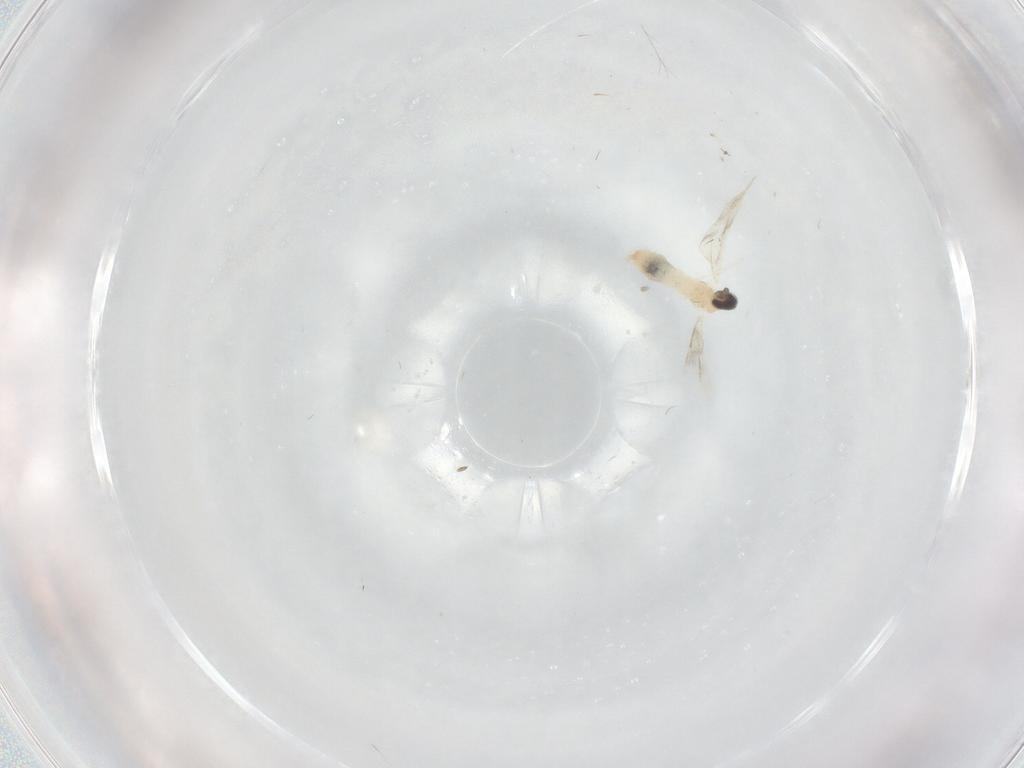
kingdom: Animalia
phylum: Arthropoda
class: Insecta
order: Diptera
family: Cecidomyiidae
